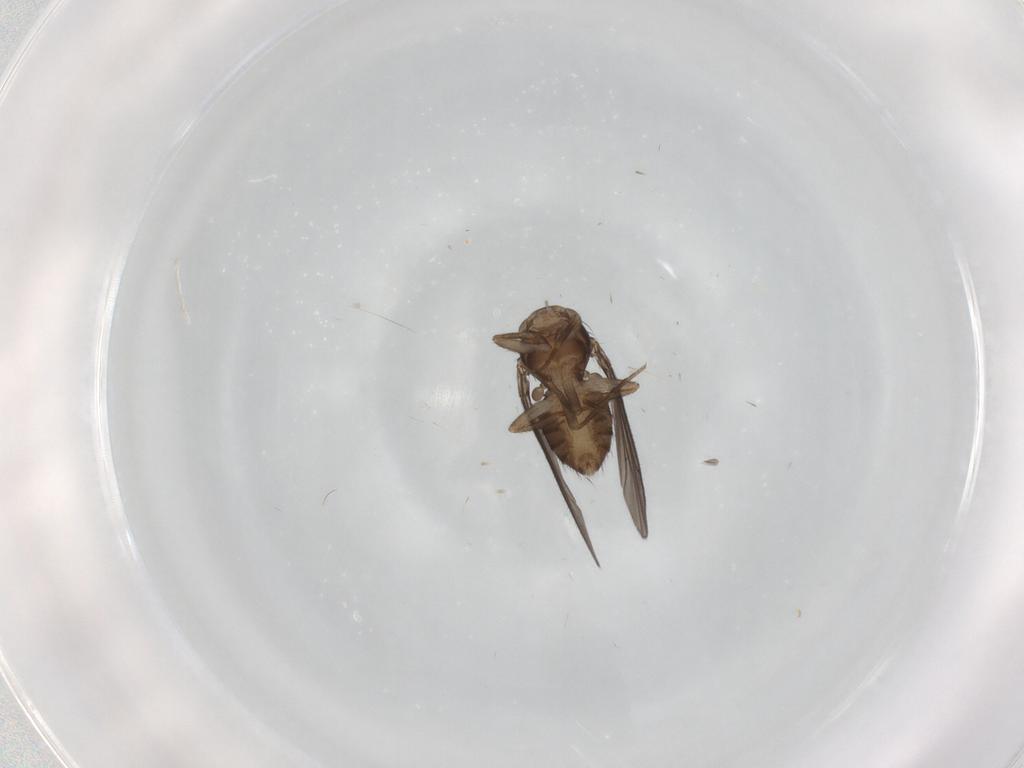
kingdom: Animalia
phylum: Arthropoda
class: Insecta
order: Diptera
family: Drosophilidae
